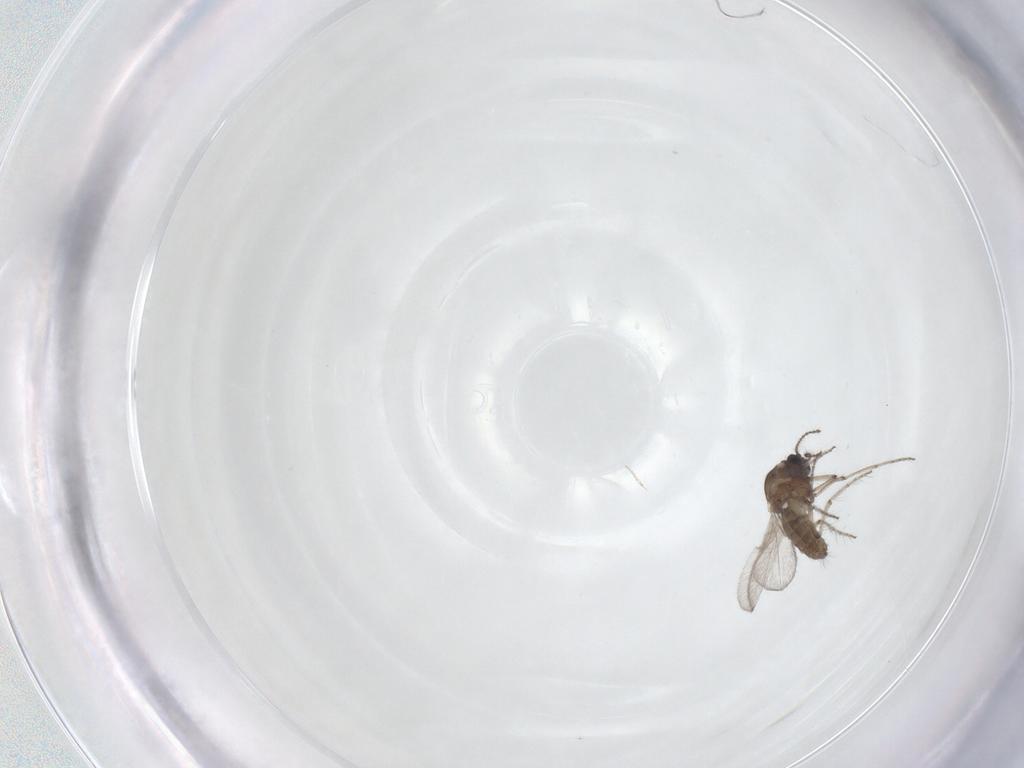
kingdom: Animalia
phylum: Arthropoda
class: Insecta
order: Diptera
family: Ceratopogonidae
